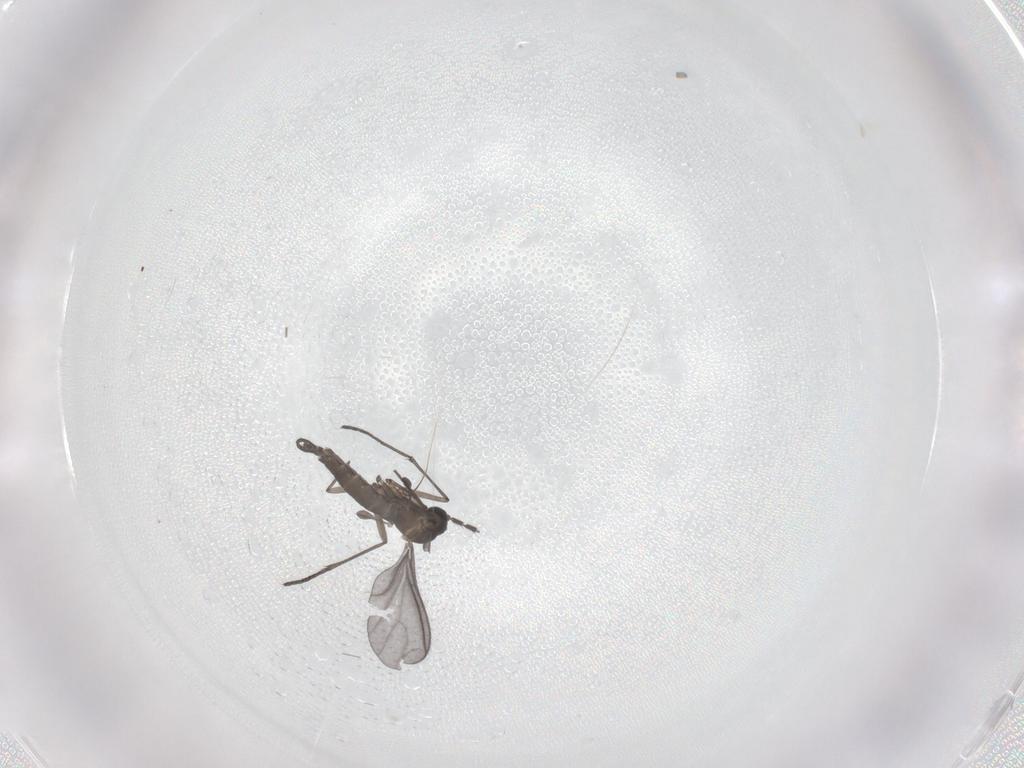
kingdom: Animalia
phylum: Arthropoda
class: Insecta
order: Diptera
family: Sciaridae
